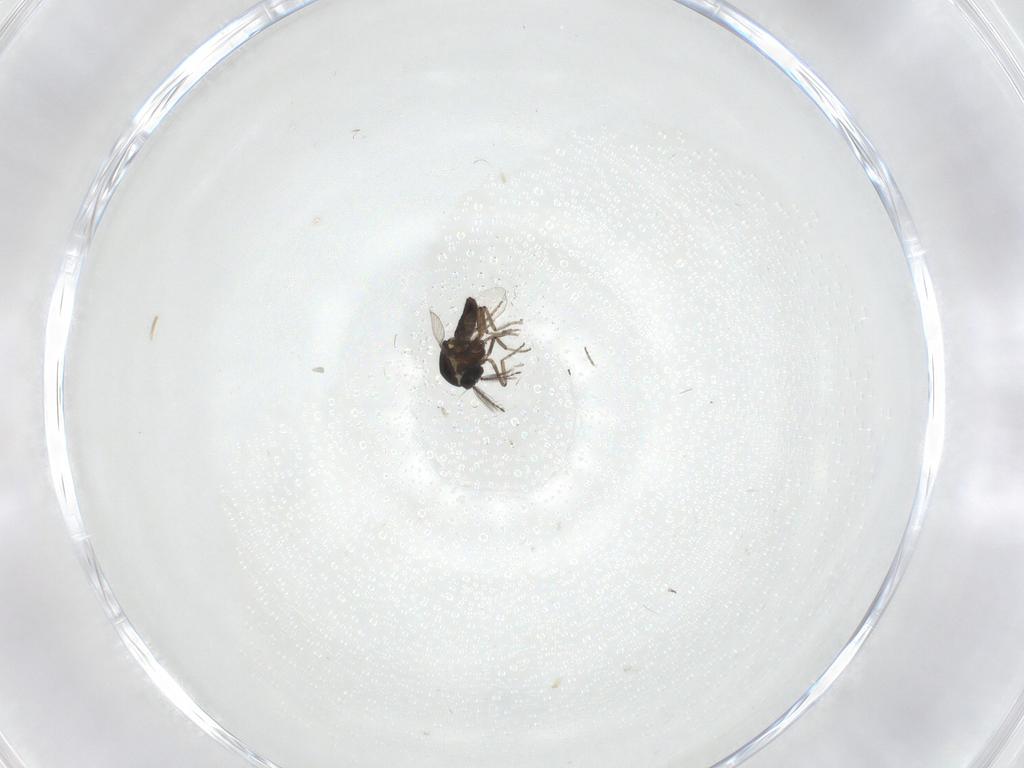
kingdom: Animalia
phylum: Arthropoda
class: Insecta
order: Diptera
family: Ceratopogonidae
